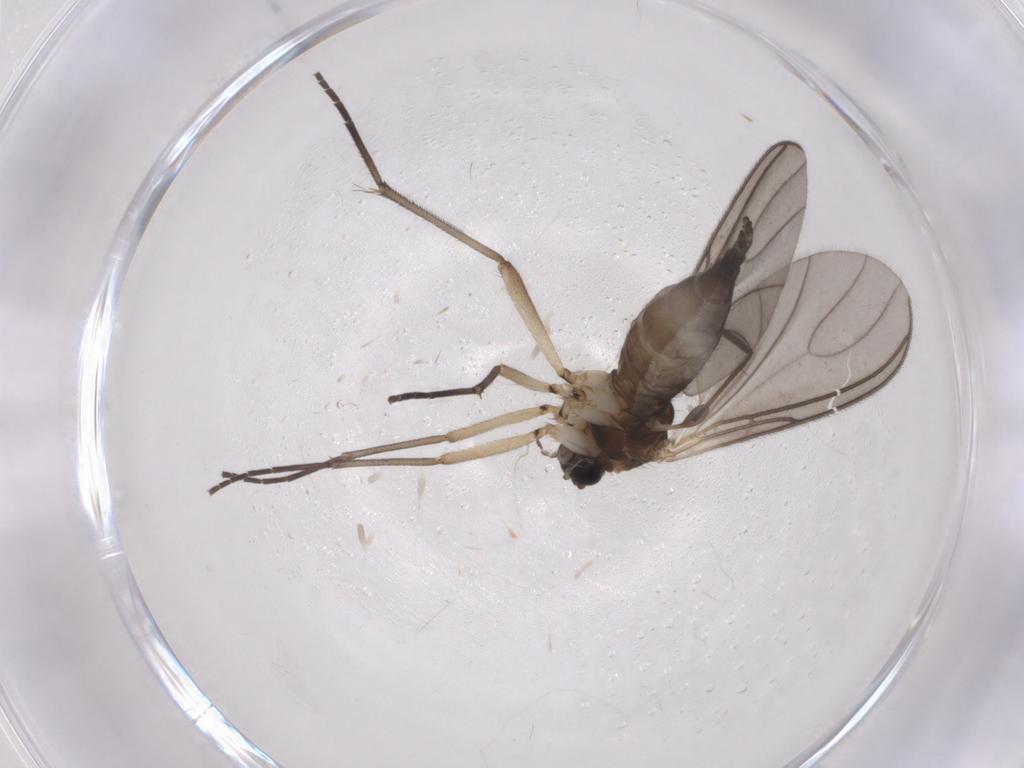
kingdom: Animalia
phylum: Arthropoda
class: Insecta
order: Diptera
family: Sciaridae
